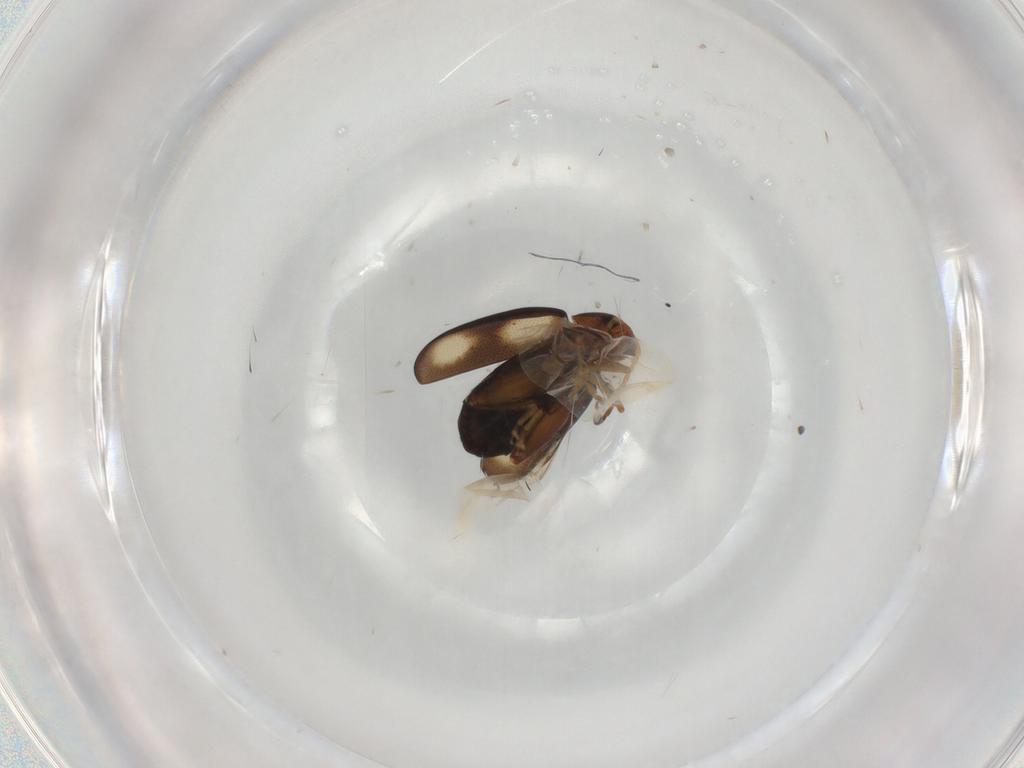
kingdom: Animalia
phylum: Arthropoda
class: Insecta
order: Coleoptera
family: Chrysomelidae
